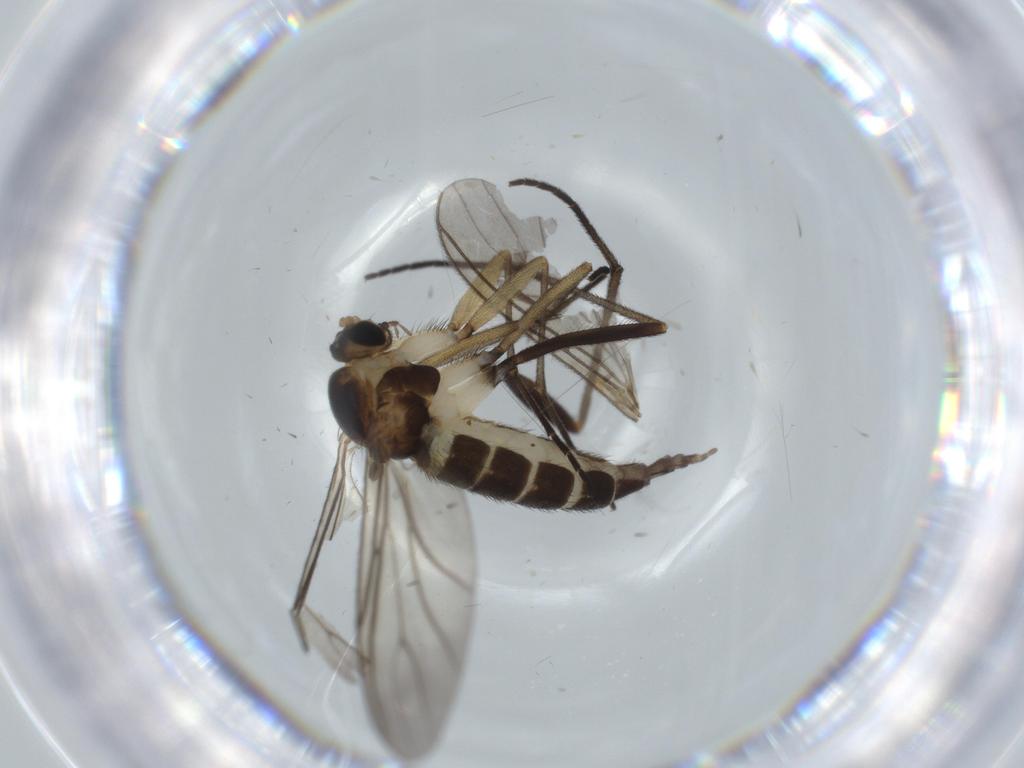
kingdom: Animalia
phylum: Arthropoda
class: Insecta
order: Diptera
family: Sciaridae
